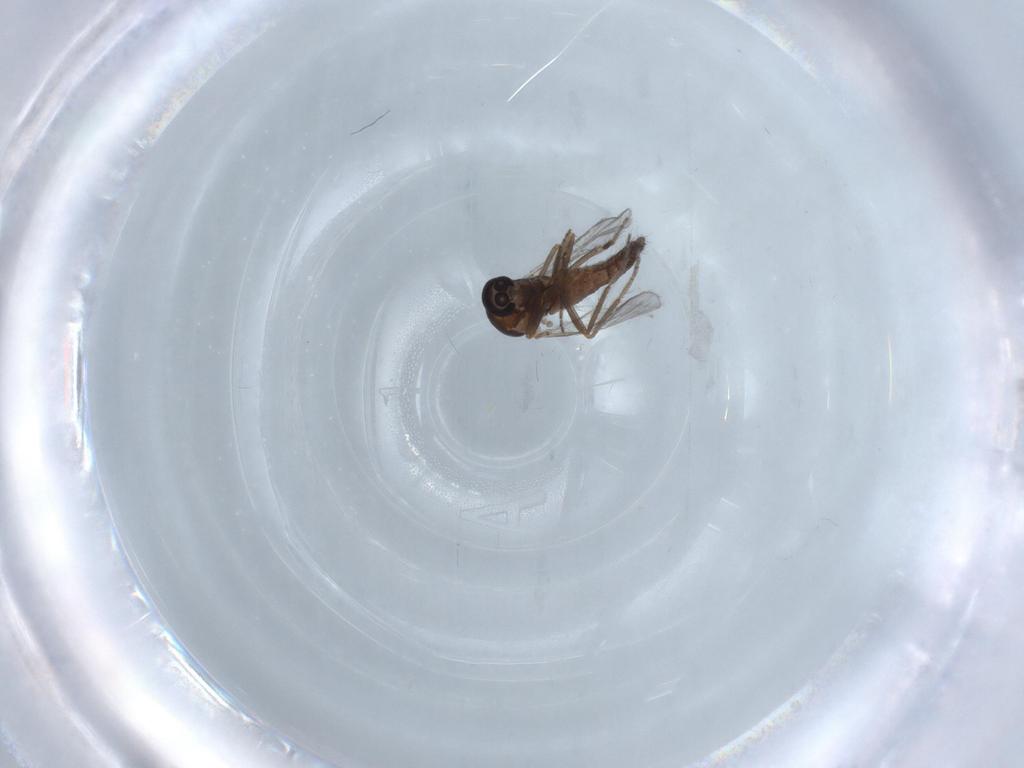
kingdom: Animalia
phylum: Arthropoda
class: Insecta
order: Diptera
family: Ceratopogonidae
